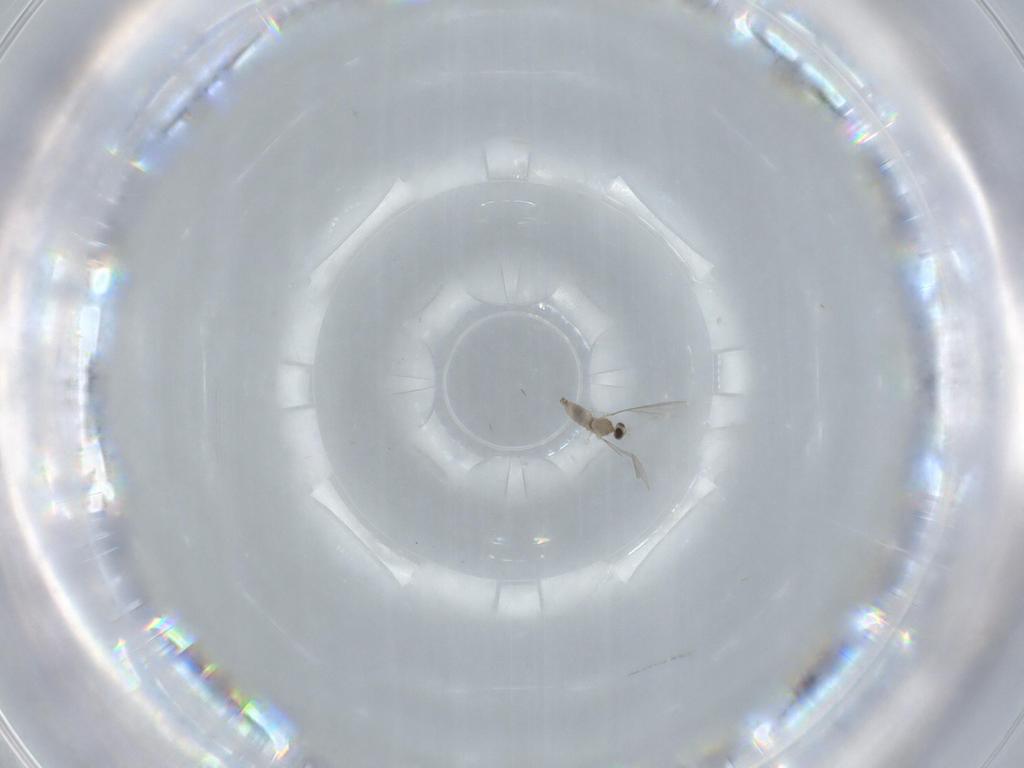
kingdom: Animalia
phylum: Arthropoda
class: Insecta
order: Diptera
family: Cecidomyiidae
